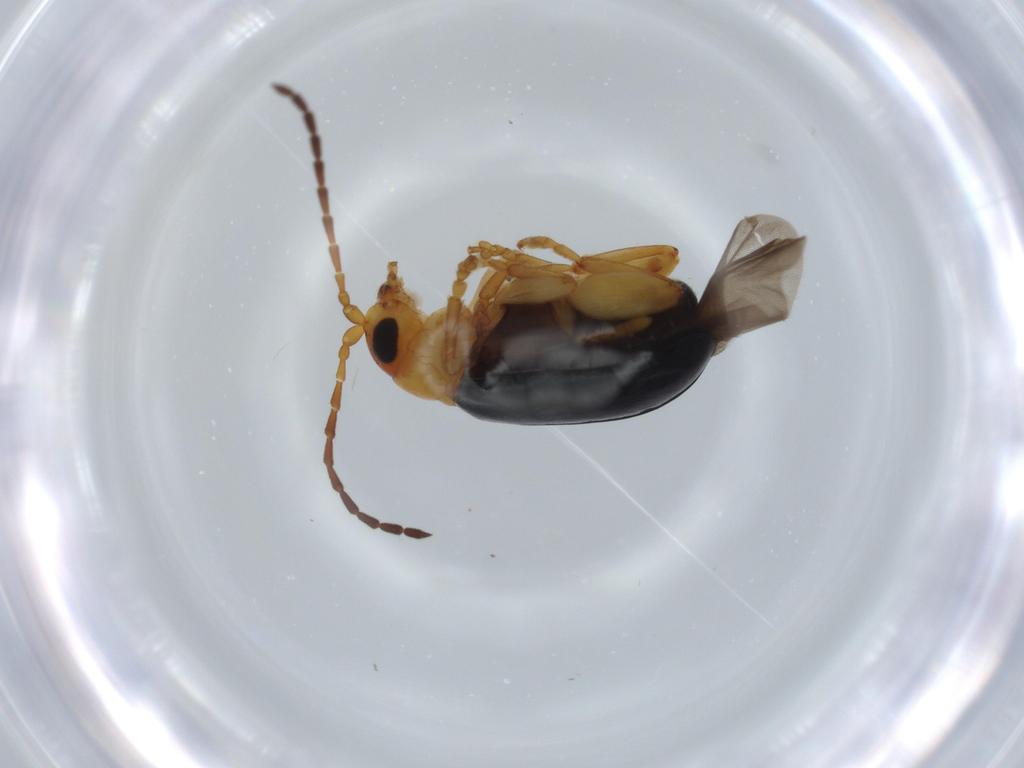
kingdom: Animalia
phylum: Arthropoda
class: Insecta
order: Coleoptera
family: Chrysomelidae
